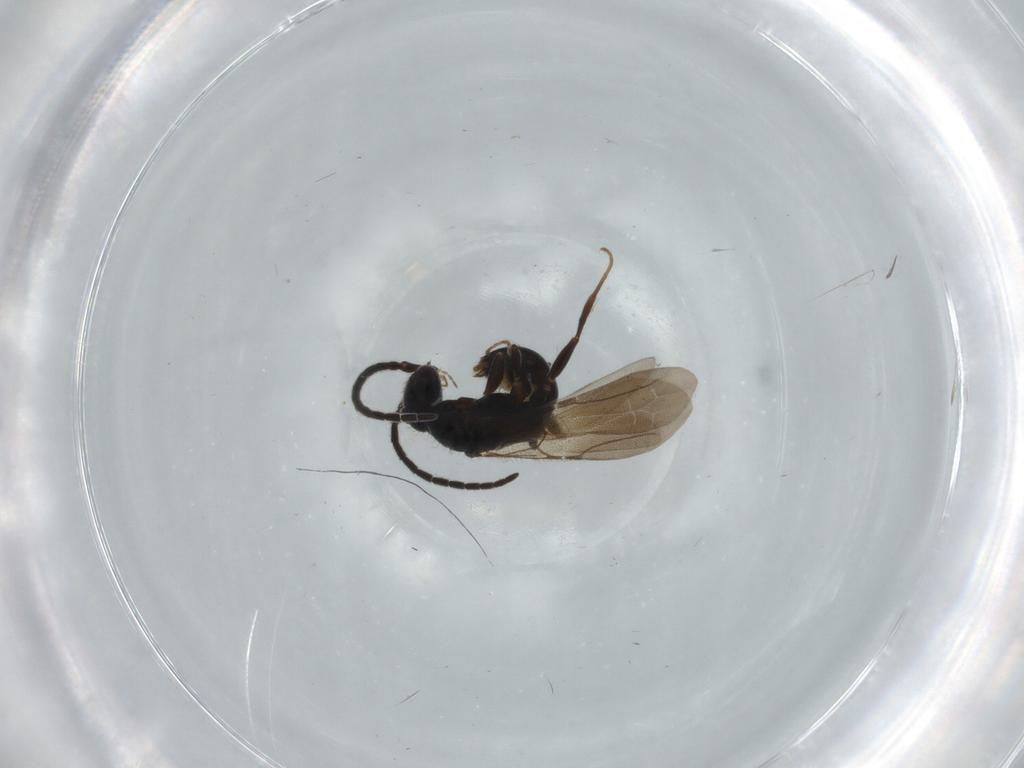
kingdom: Animalia
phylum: Arthropoda
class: Insecta
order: Hymenoptera
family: Bethylidae
